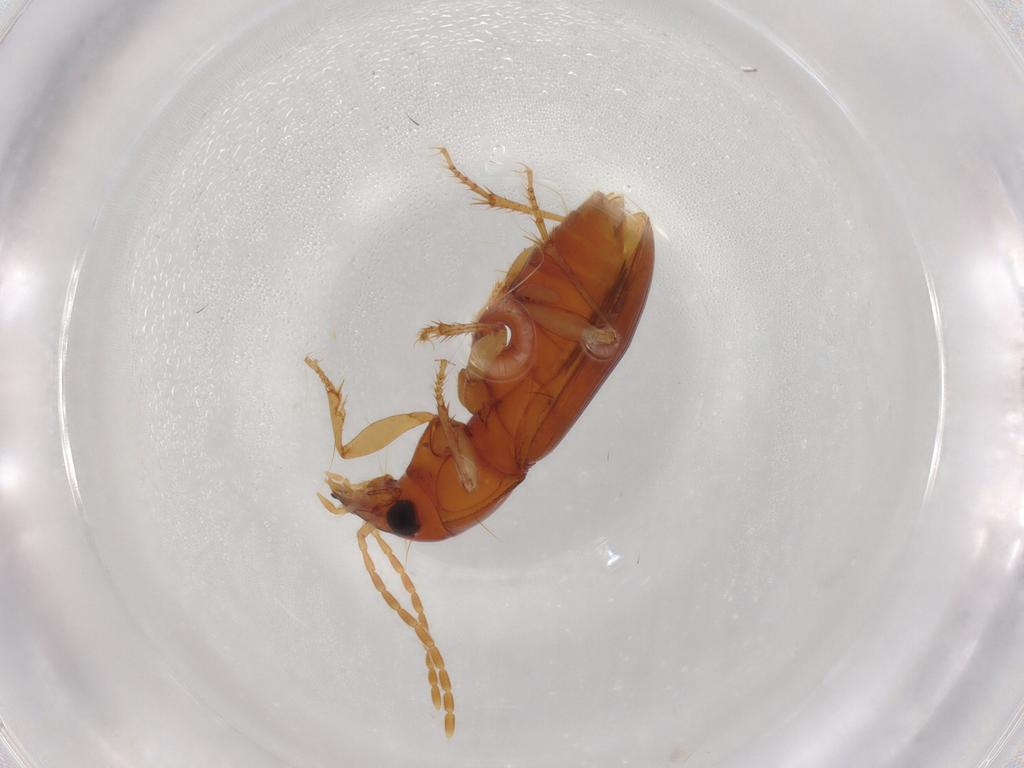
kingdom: Animalia
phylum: Arthropoda
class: Insecta
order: Coleoptera
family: Carabidae
